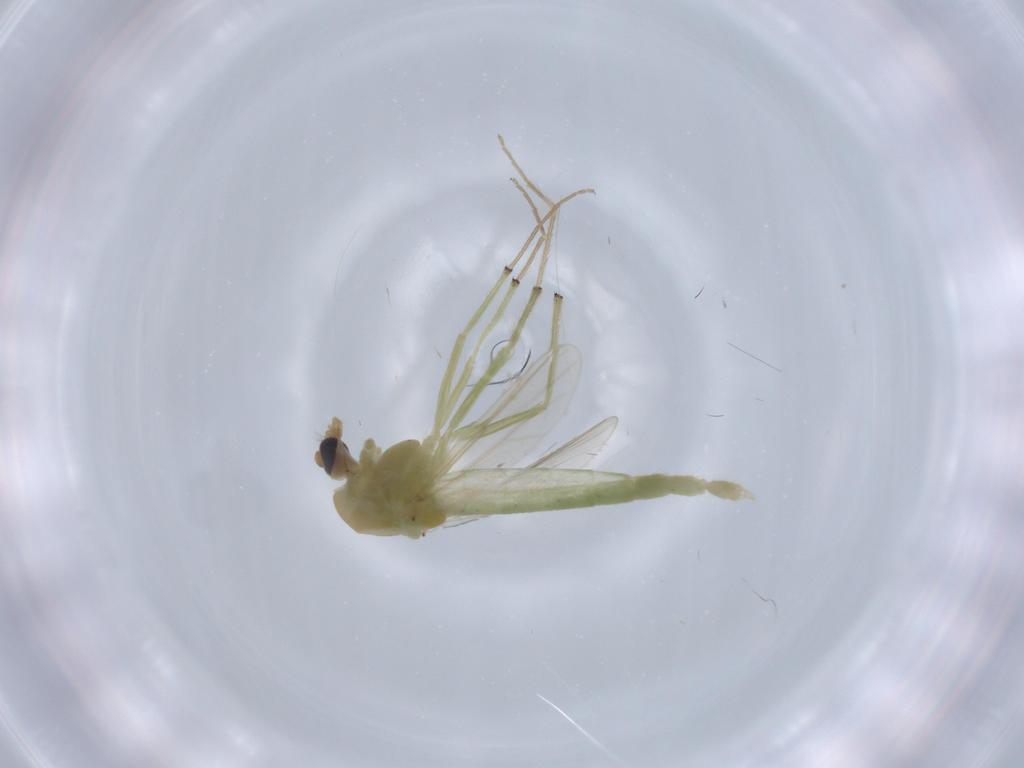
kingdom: Animalia
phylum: Arthropoda
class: Insecta
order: Diptera
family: Chironomidae
